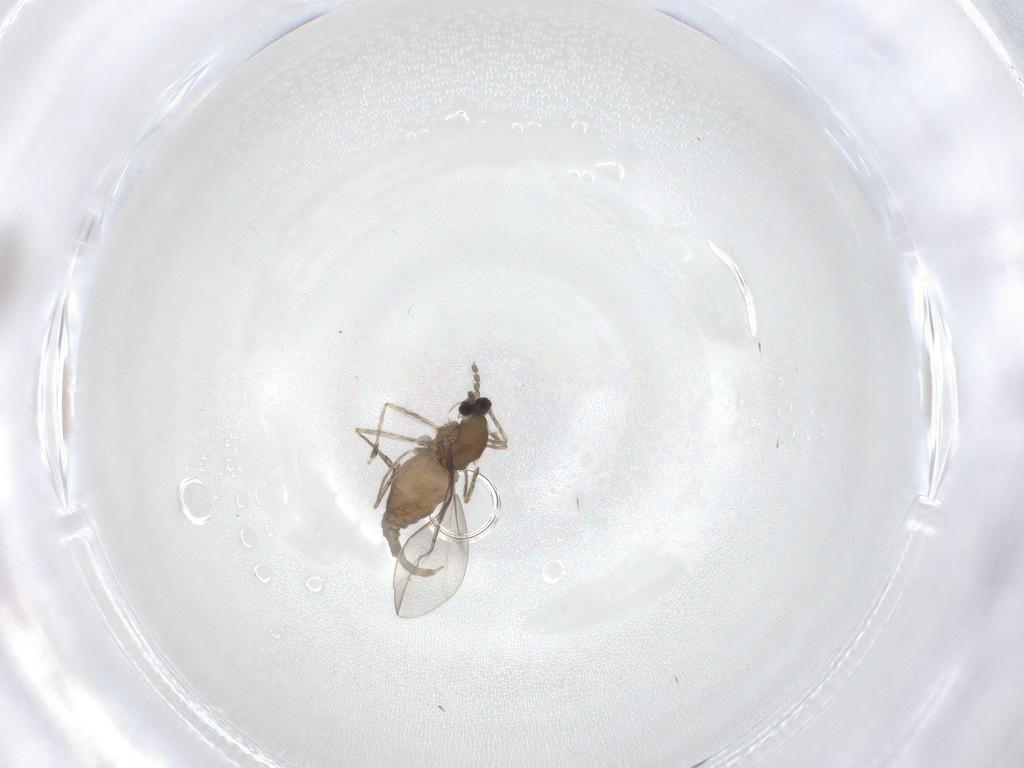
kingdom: Animalia
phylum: Arthropoda
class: Insecta
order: Diptera
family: Cecidomyiidae
